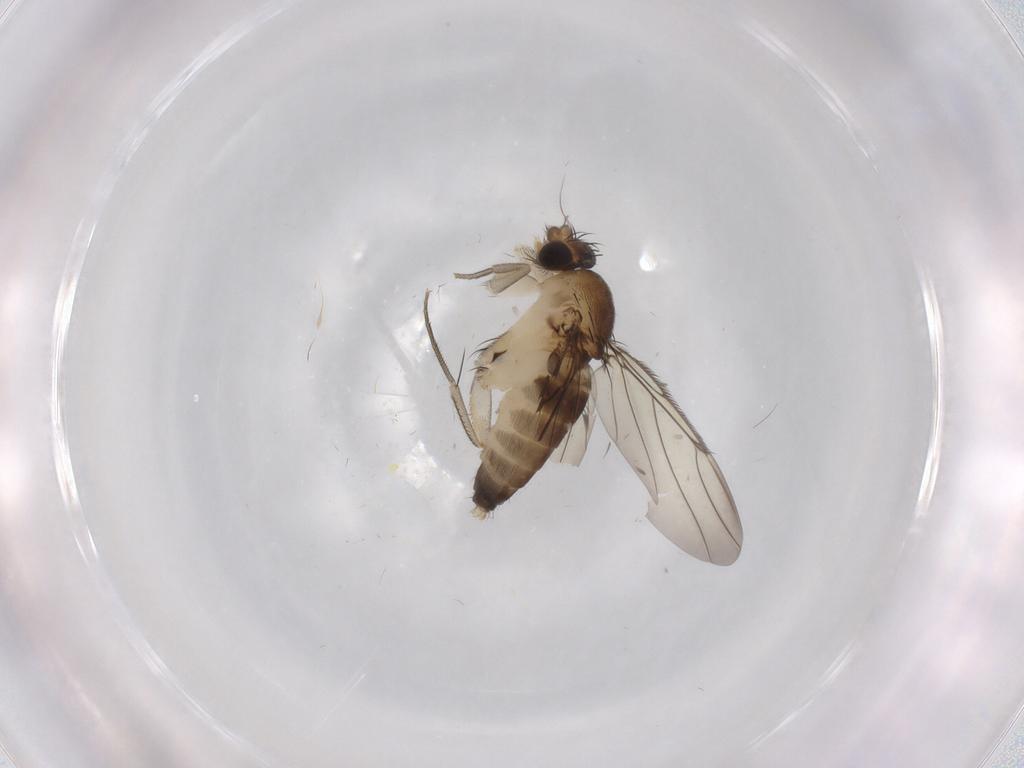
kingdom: Animalia
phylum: Arthropoda
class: Insecta
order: Diptera
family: Phoridae
